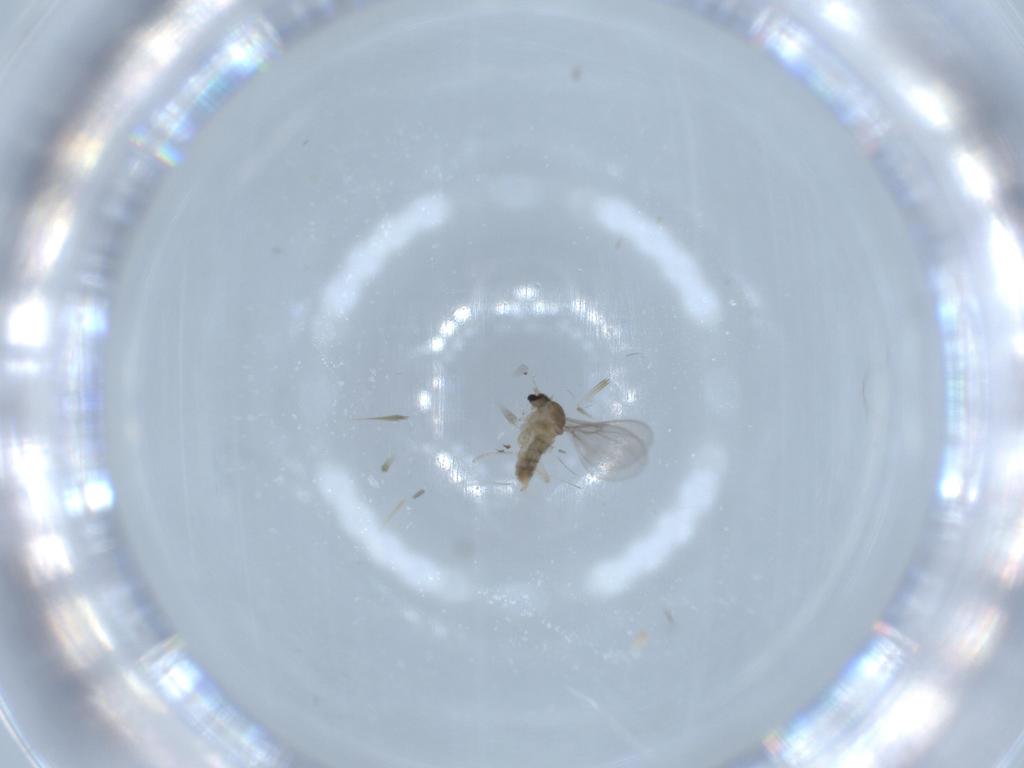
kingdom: Animalia
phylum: Arthropoda
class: Insecta
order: Diptera
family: Cecidomyiidae
